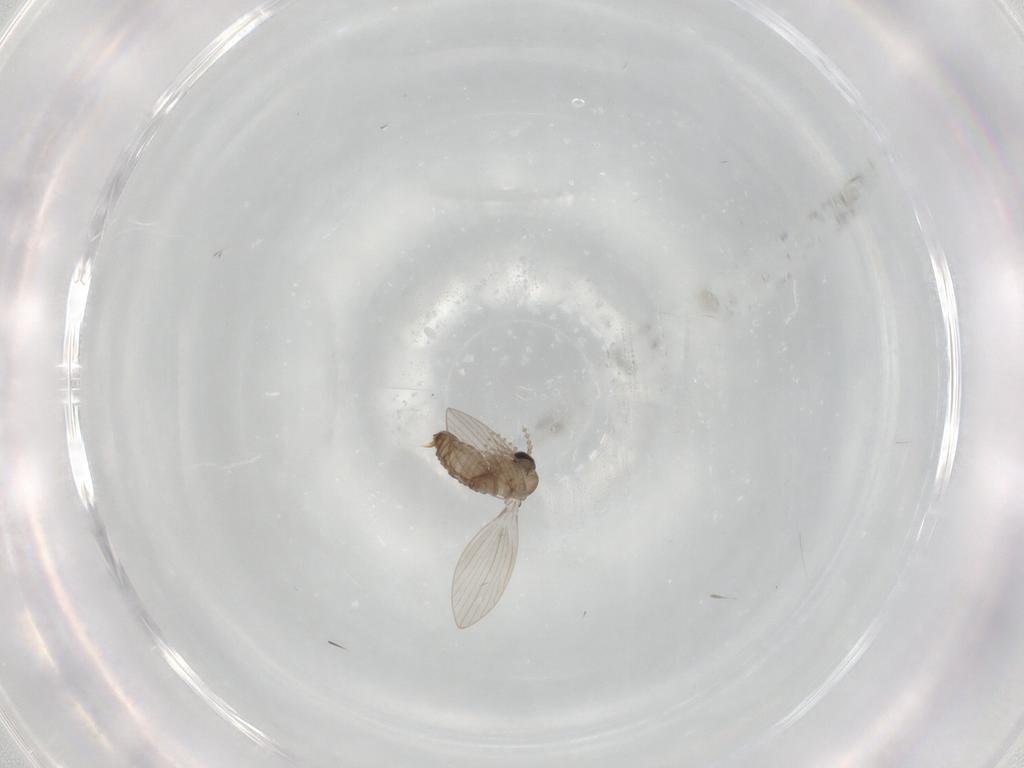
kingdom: Animalia
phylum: Arthropoda
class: Insecta
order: Diptera
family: Psychodidae
